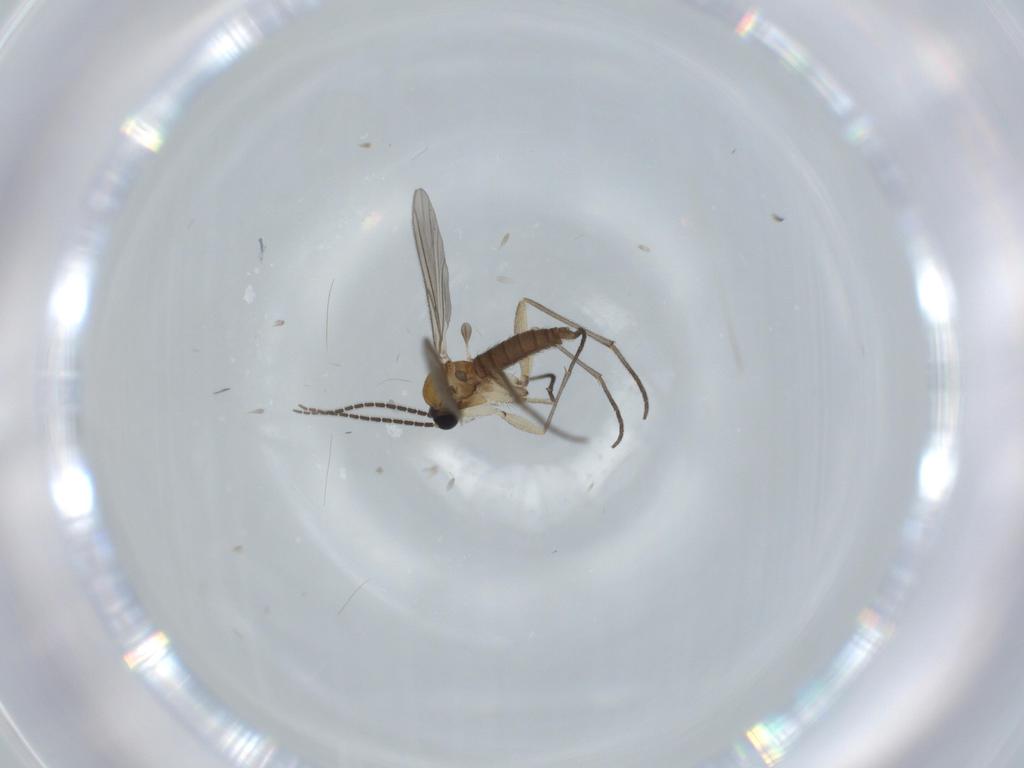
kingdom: Animalia
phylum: Arthropoda
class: Insecta
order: Diptera
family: Sciaridae
